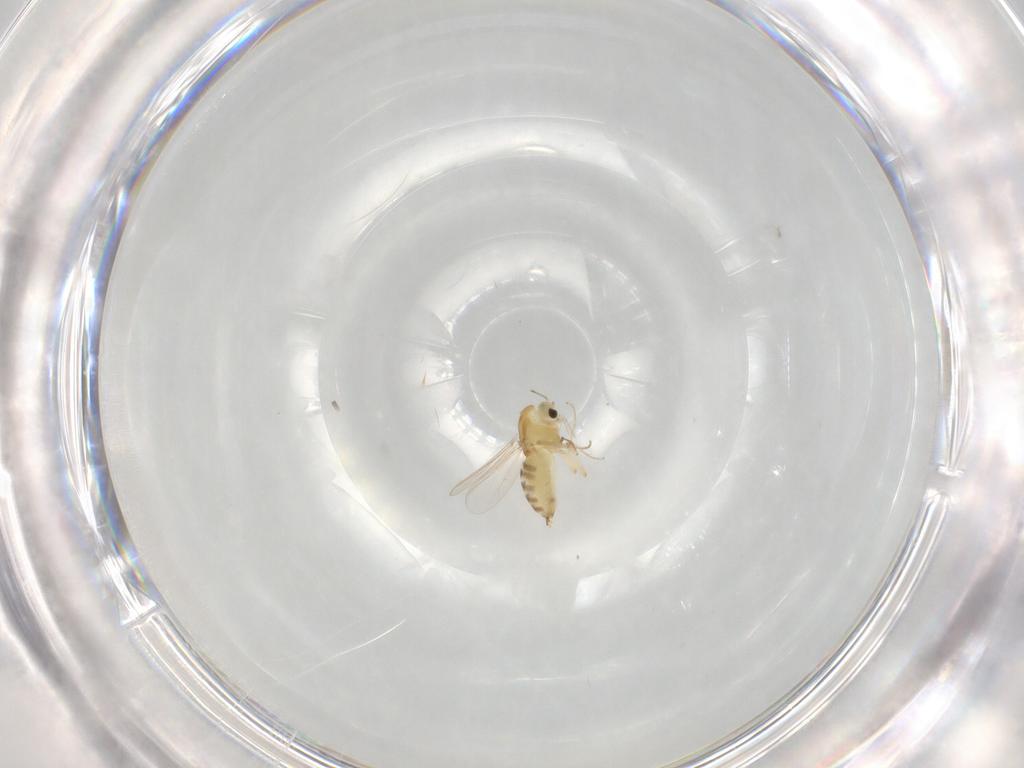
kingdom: Animalia
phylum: Arthropoda
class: Insecta
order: Diptera
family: Chironomidae
